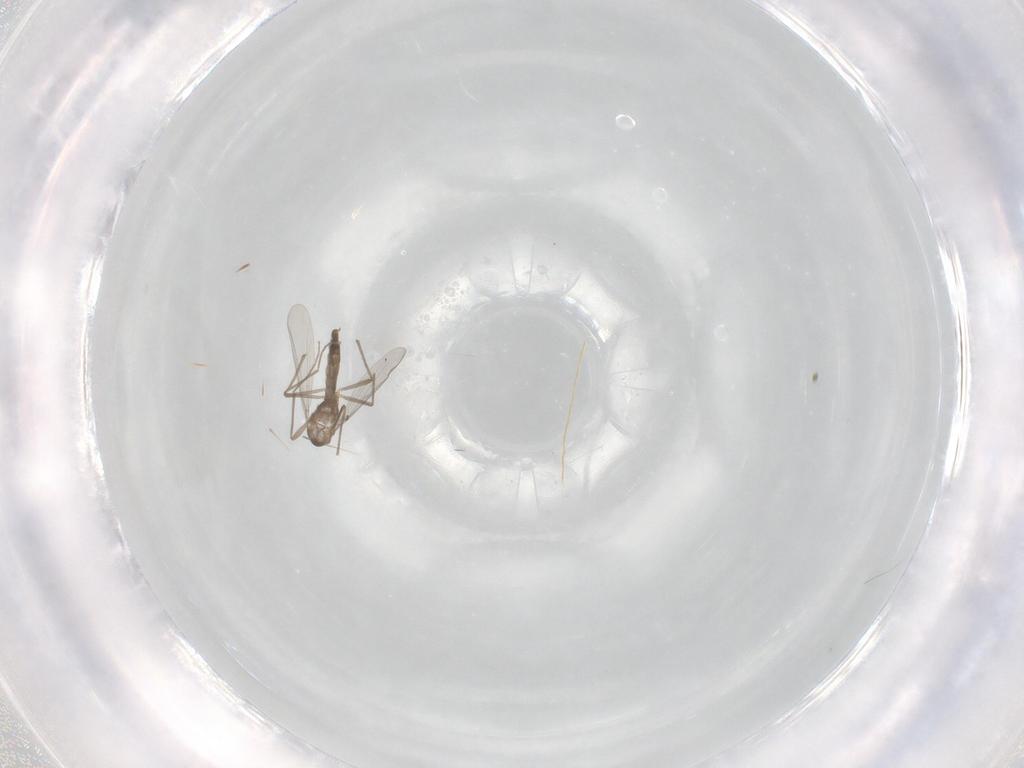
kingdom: Animalia
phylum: Arthropoda
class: Insecta
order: Diptera
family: Chironomidae
